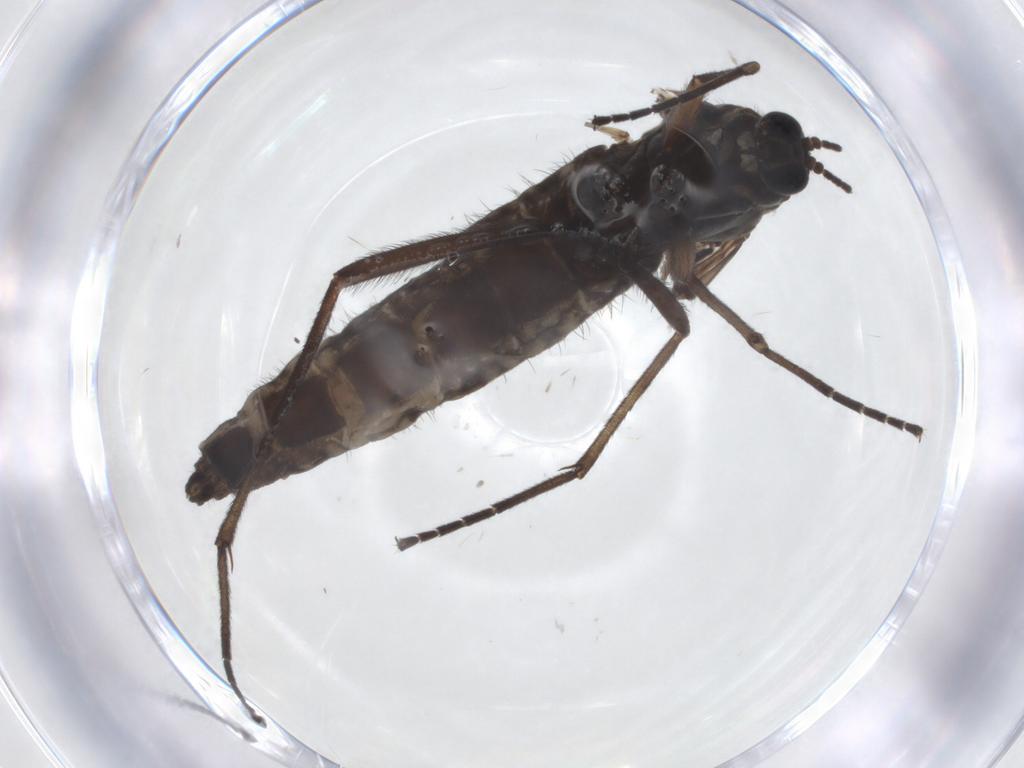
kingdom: Animalia
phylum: Arthropoda
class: Insecta
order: Diptera
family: Sciaridae
